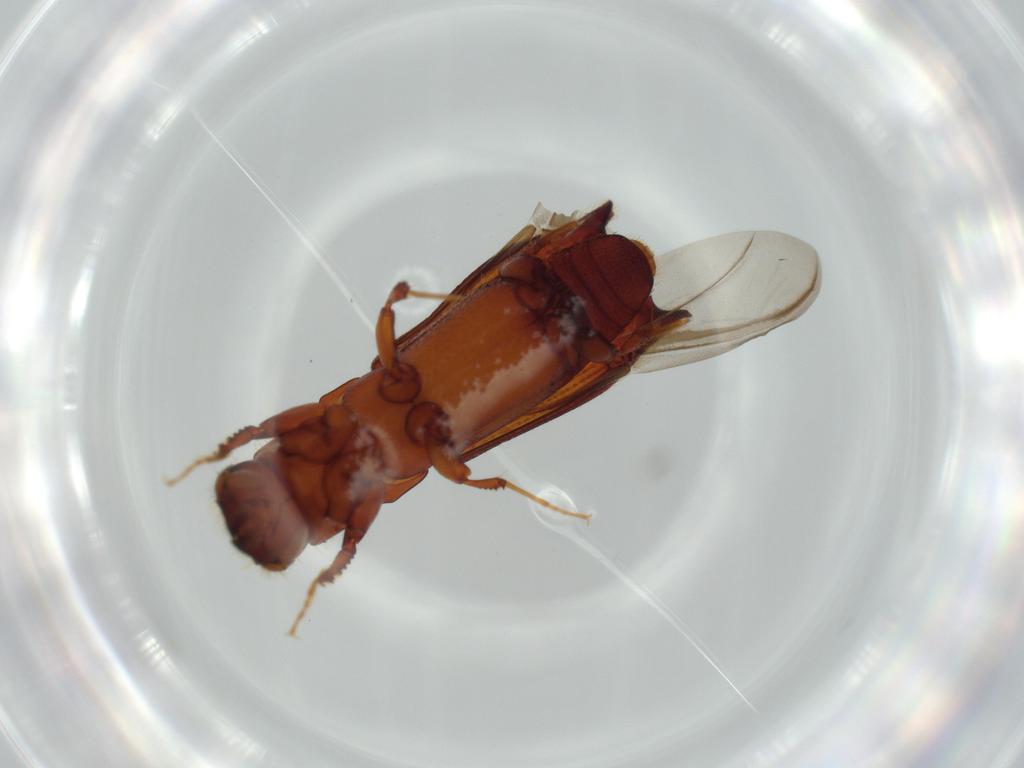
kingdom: Animalia
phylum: Arthropoda
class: Insecta
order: Coleoptera
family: Curculionidae
